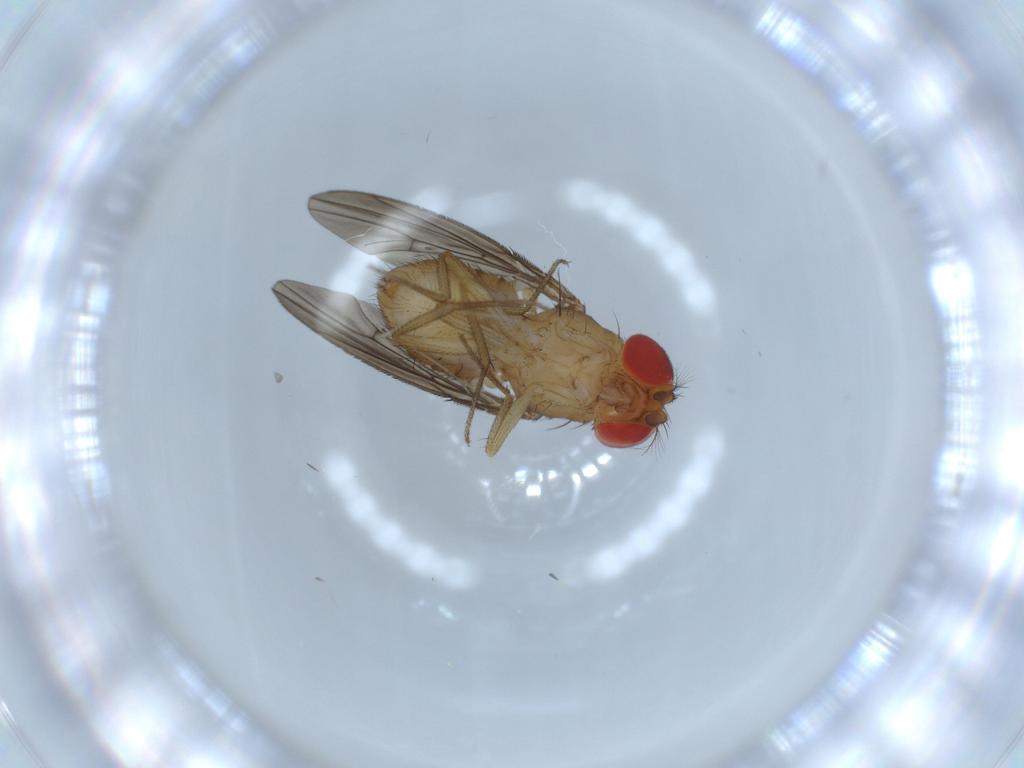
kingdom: Animalia
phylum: Arthropoda
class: Insecta
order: Diptera
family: Drosophilidae
